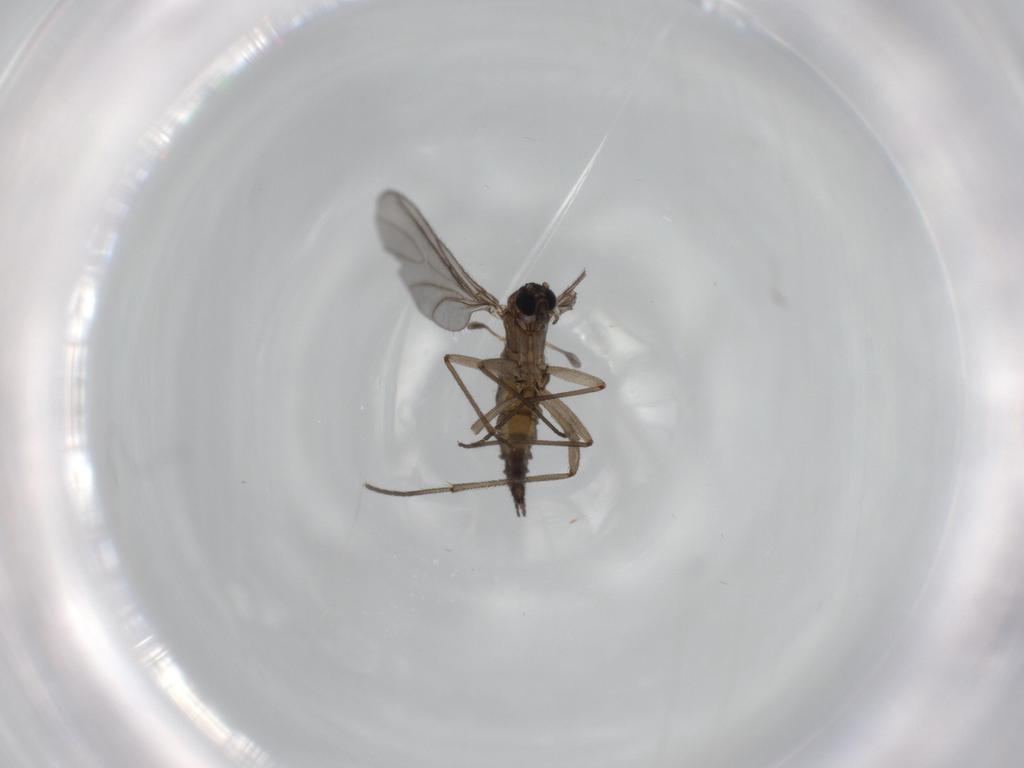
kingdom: Animalia
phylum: Arthropoda
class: Insecta
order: Diptera
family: Sciaridae
